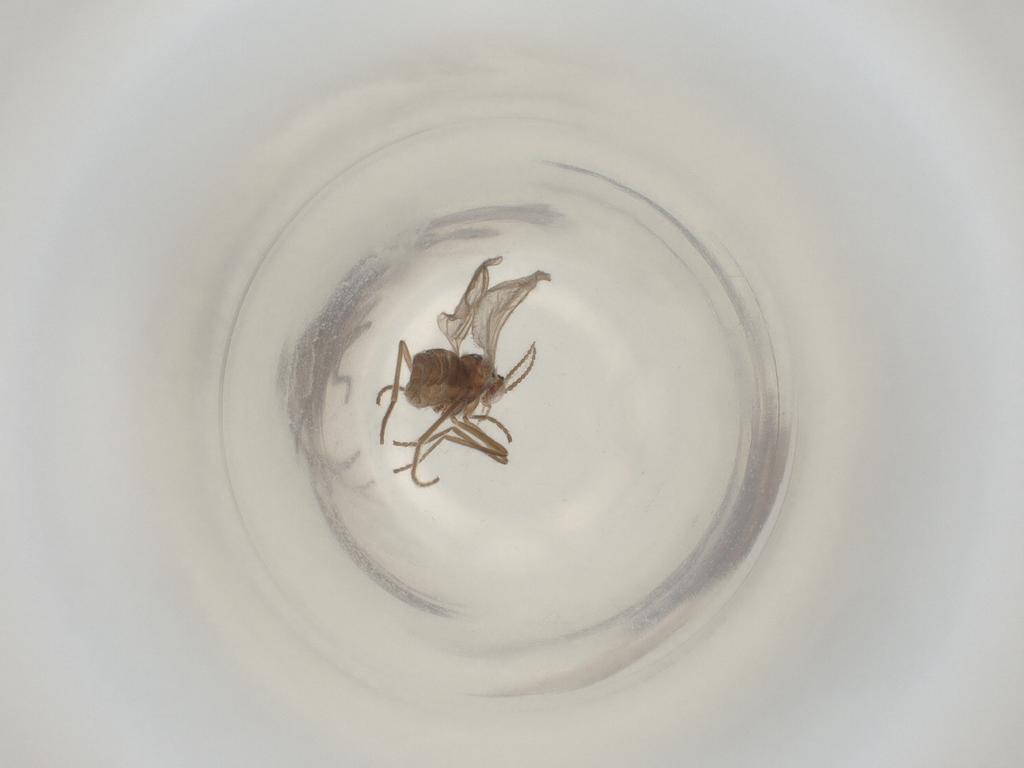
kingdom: Animalia
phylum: Arthropoda
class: Insecta
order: Diptera
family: Cecidomyiidae
